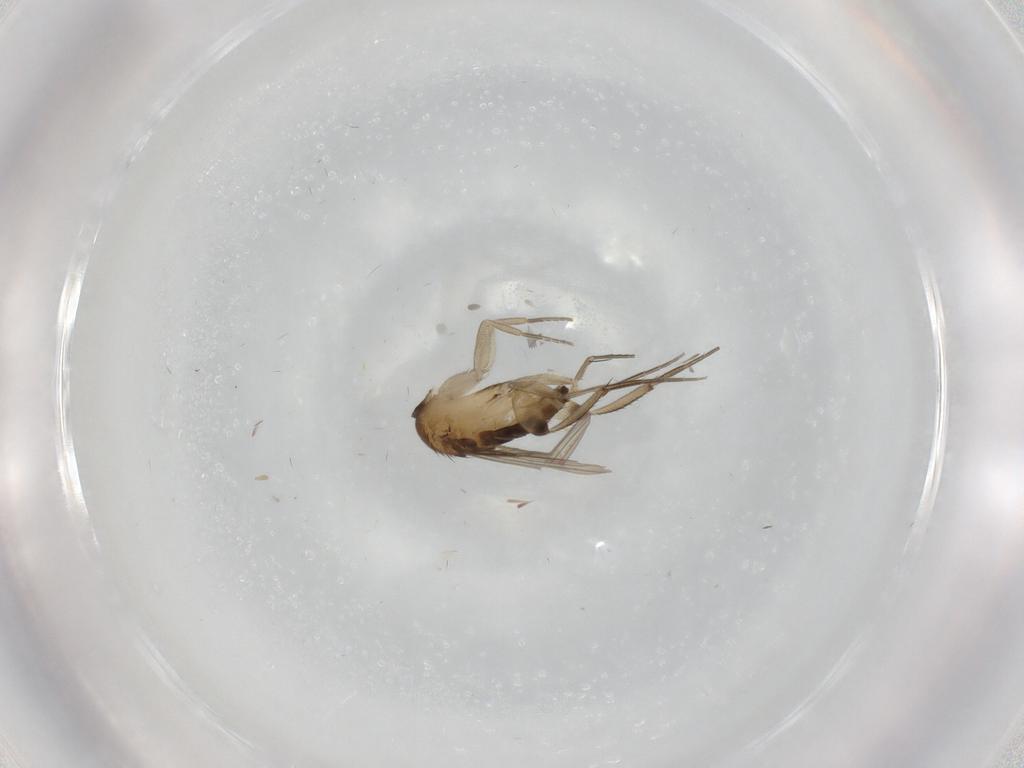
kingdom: Animalia
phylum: Arthropoda
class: Insecta
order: Diptera
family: Phoridae
